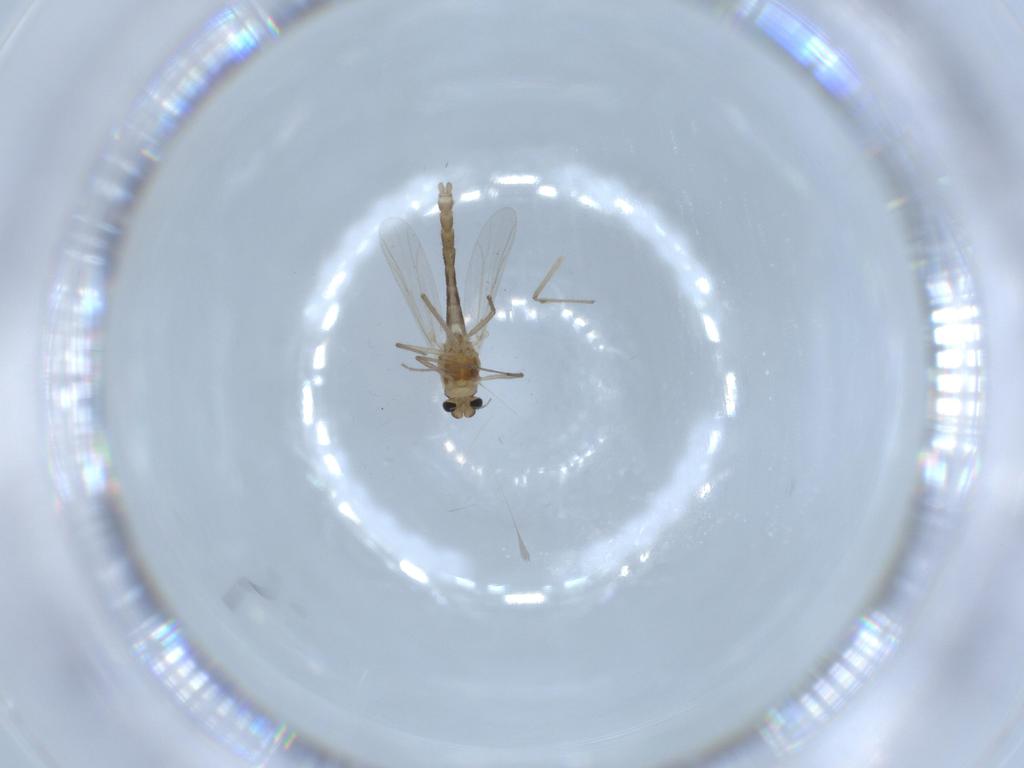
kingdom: Animalia
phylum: Arthropoda
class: Insecta
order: Diptera
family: Chironomidae
